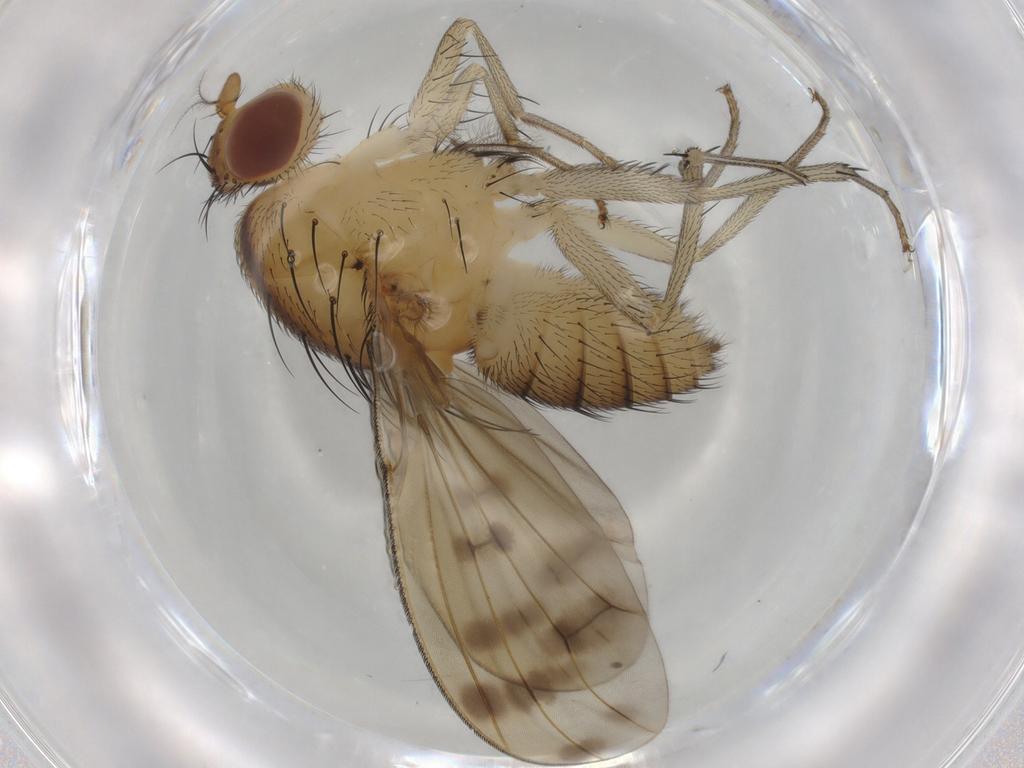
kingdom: Animalia
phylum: Arthropoda
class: Insecta
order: Diptera
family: Lauxaniidae
